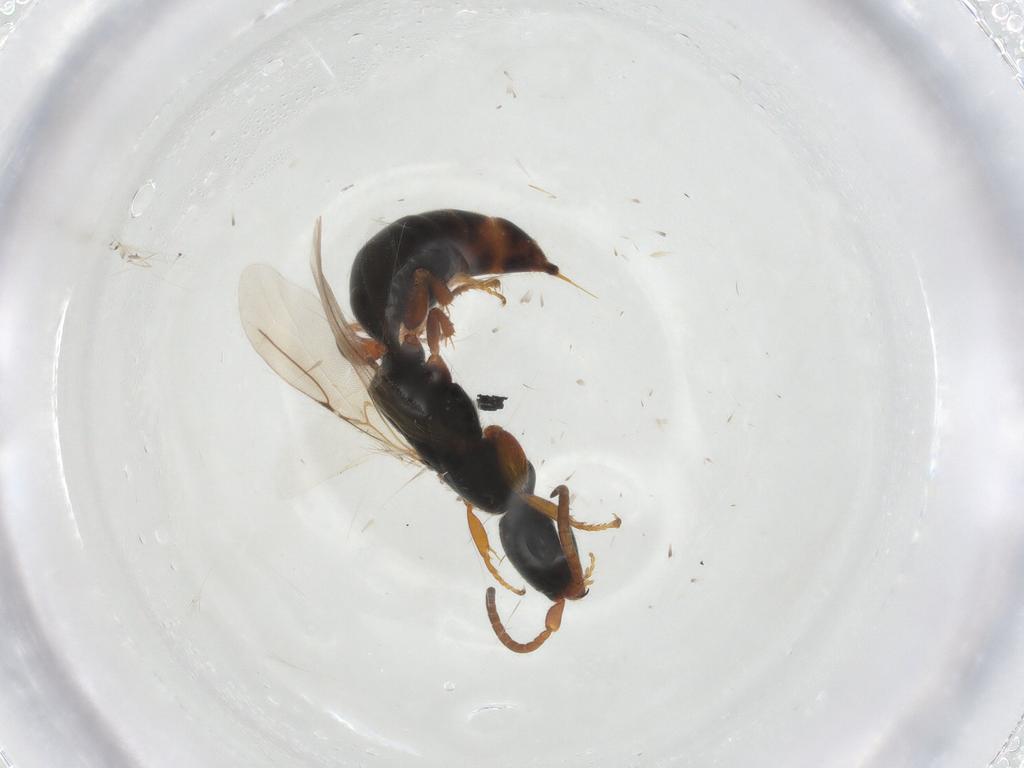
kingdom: Animalia
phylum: Arthropoda
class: Insecta
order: Hymenoptera
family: Bethylidae
